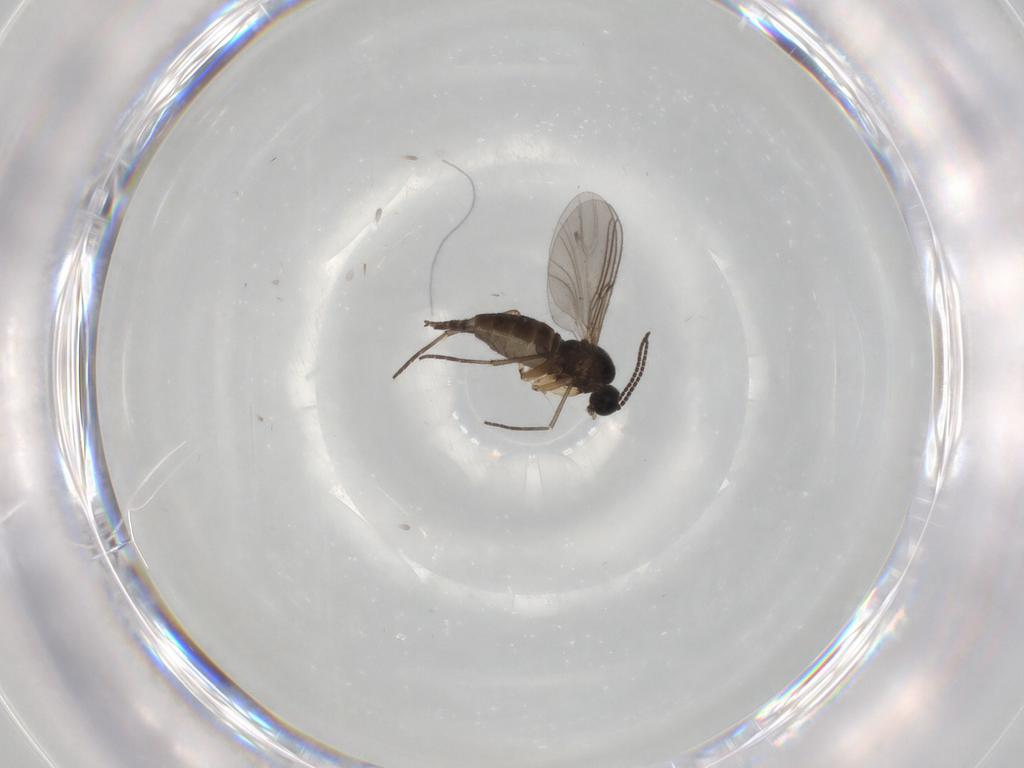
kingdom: Animalia
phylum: Arthropoda
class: Insecta
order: Diptera
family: Sciaridae
